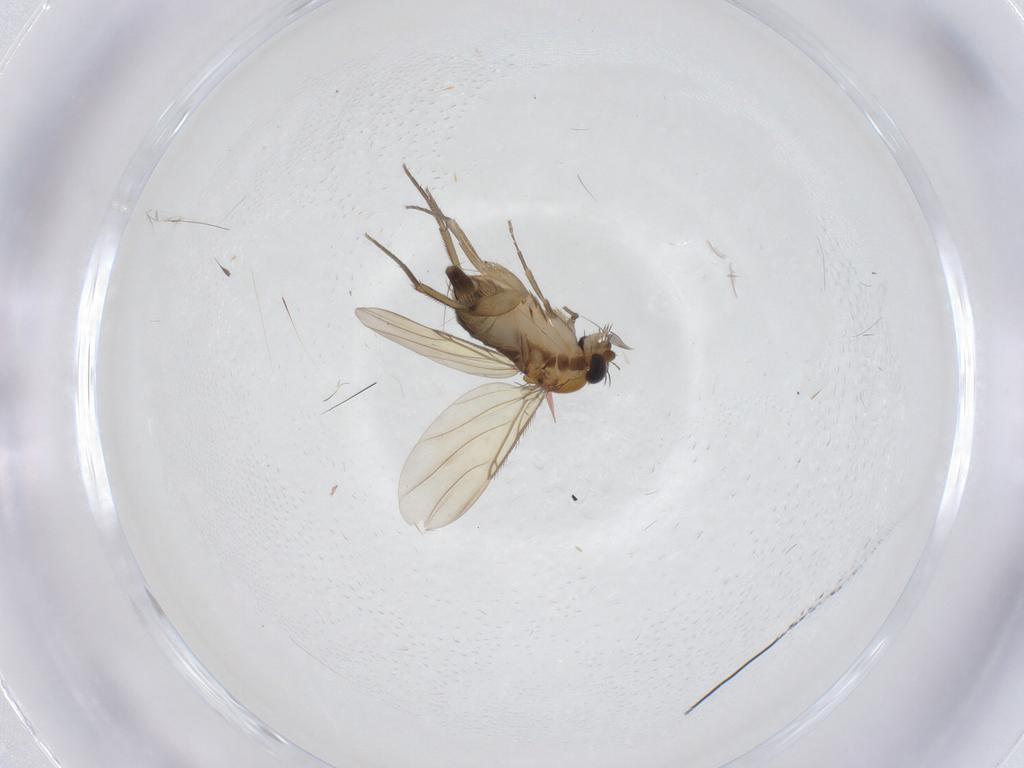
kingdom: Animalia
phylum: Arthropoda
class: Insecta
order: Diptera
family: Phoridae
